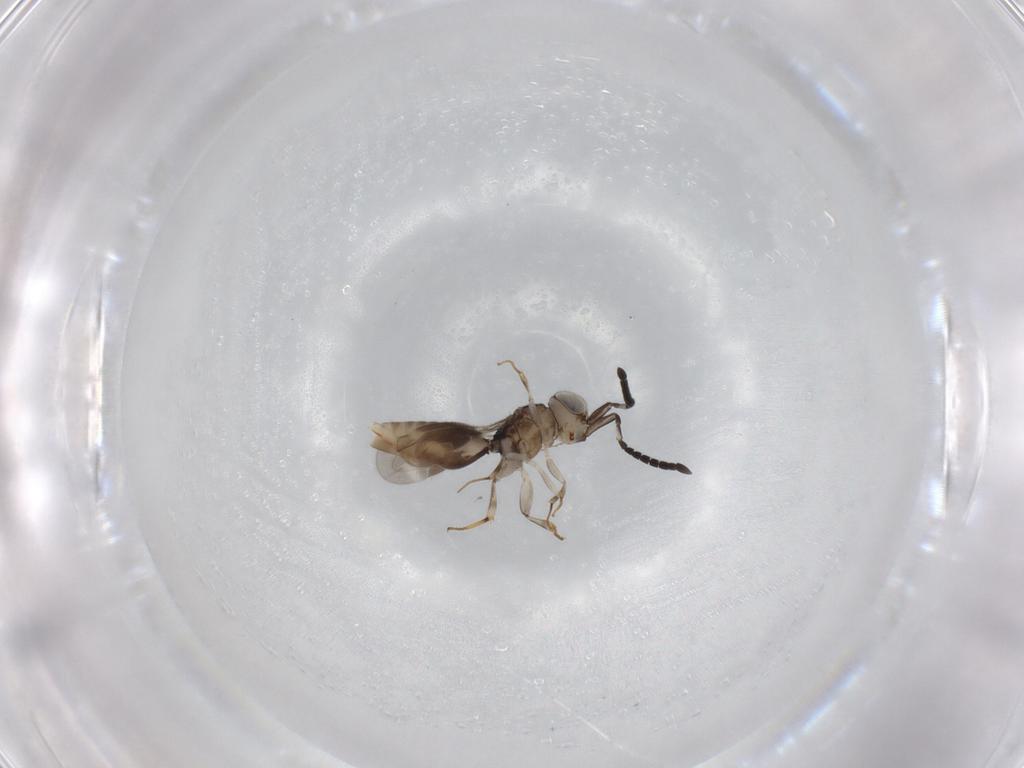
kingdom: Animalia
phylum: Arthropoda
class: Insecta
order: Hymenoptera
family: Megaspilidae
